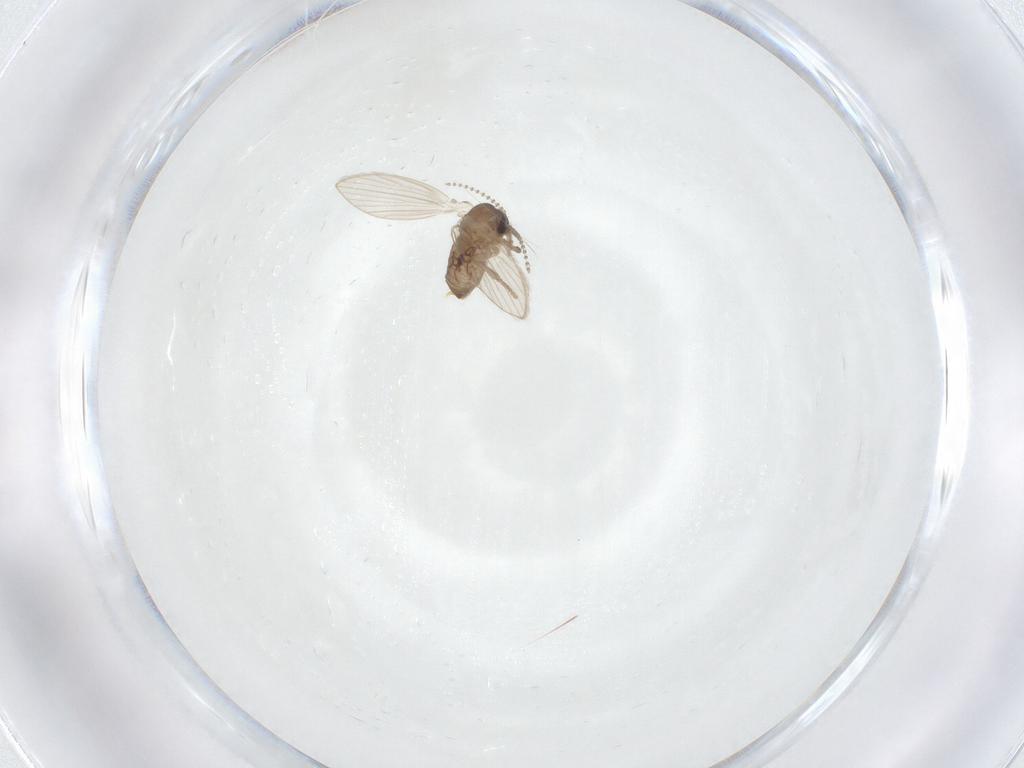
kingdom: Animalia
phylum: Arthropoda
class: Insecta
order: Diptera
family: Psychodidae
